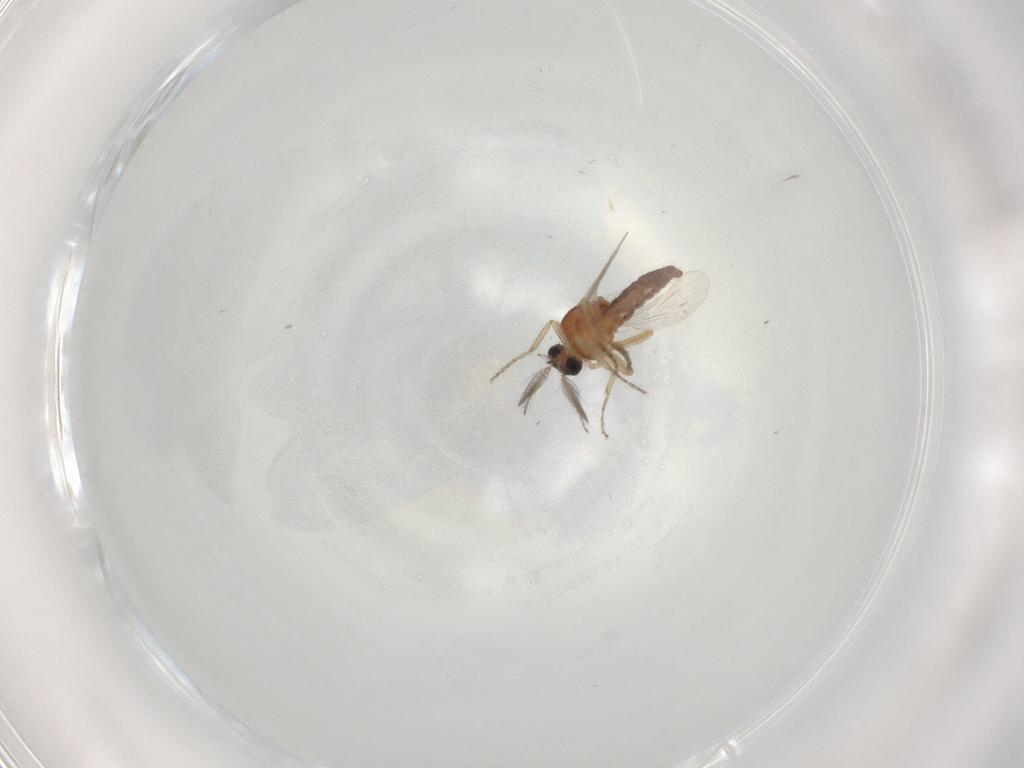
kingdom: Animalia
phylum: Arthropoda
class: Insecta
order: Diptera
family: Ceratopogonidae
